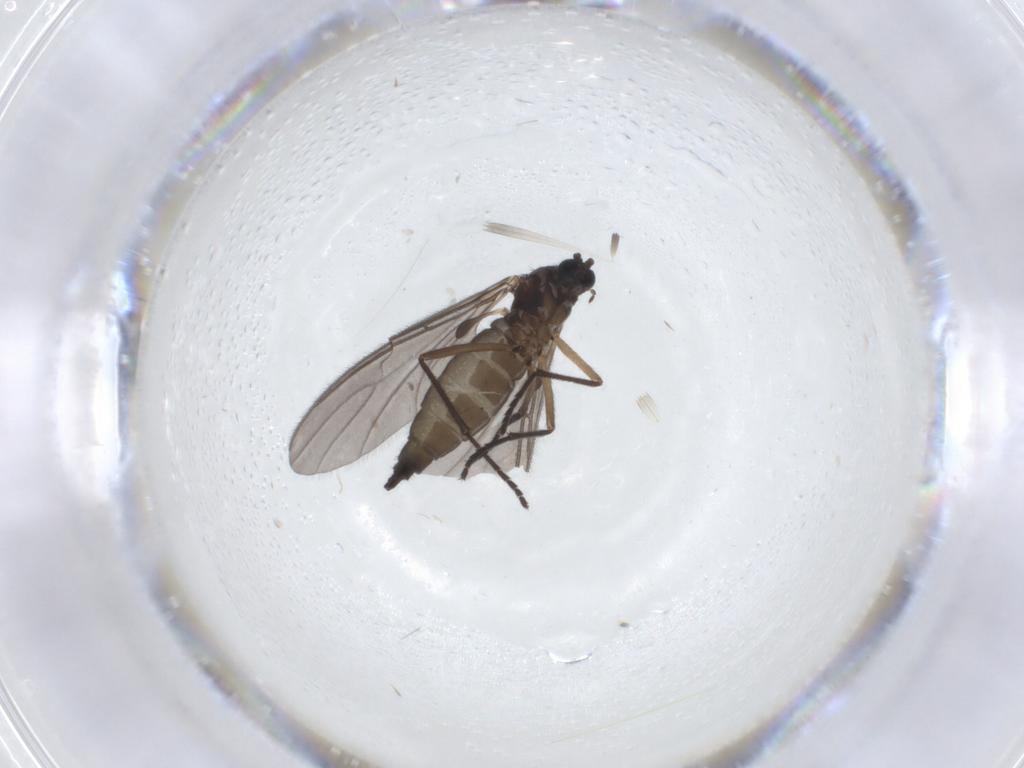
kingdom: Animalia
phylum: Arthropoda
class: Insecta
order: Diptera
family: Sciaridae
